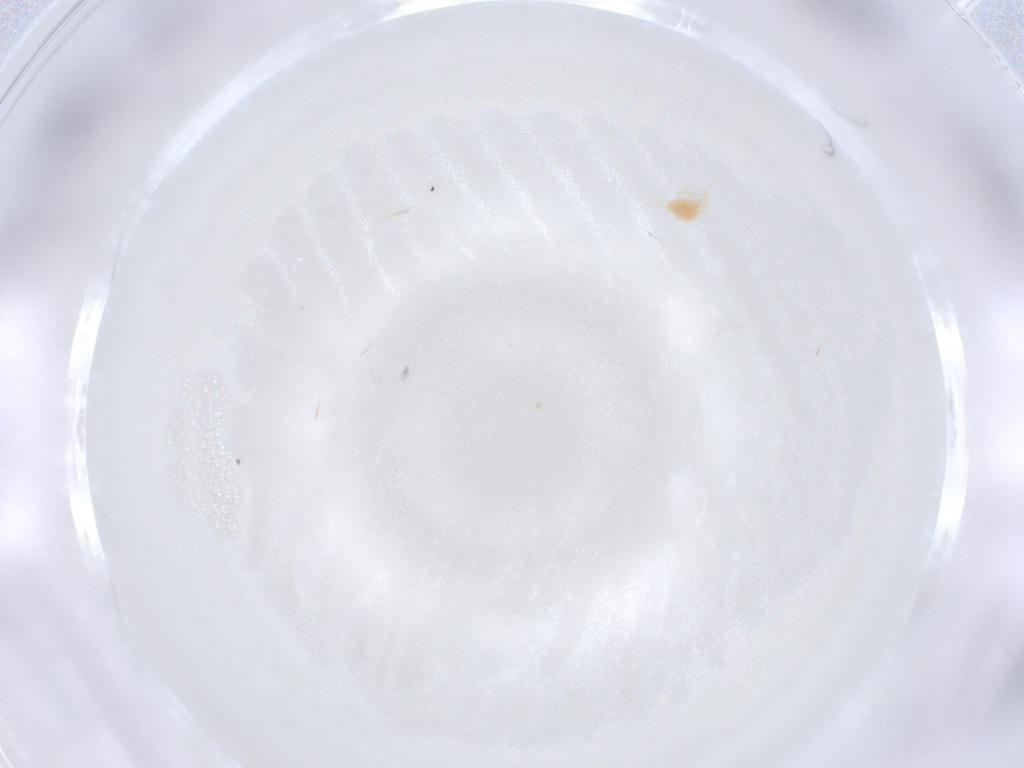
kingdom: Animalia
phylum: Arthropoda
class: Arachnida
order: Trombidiformes
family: Tetranychidae
